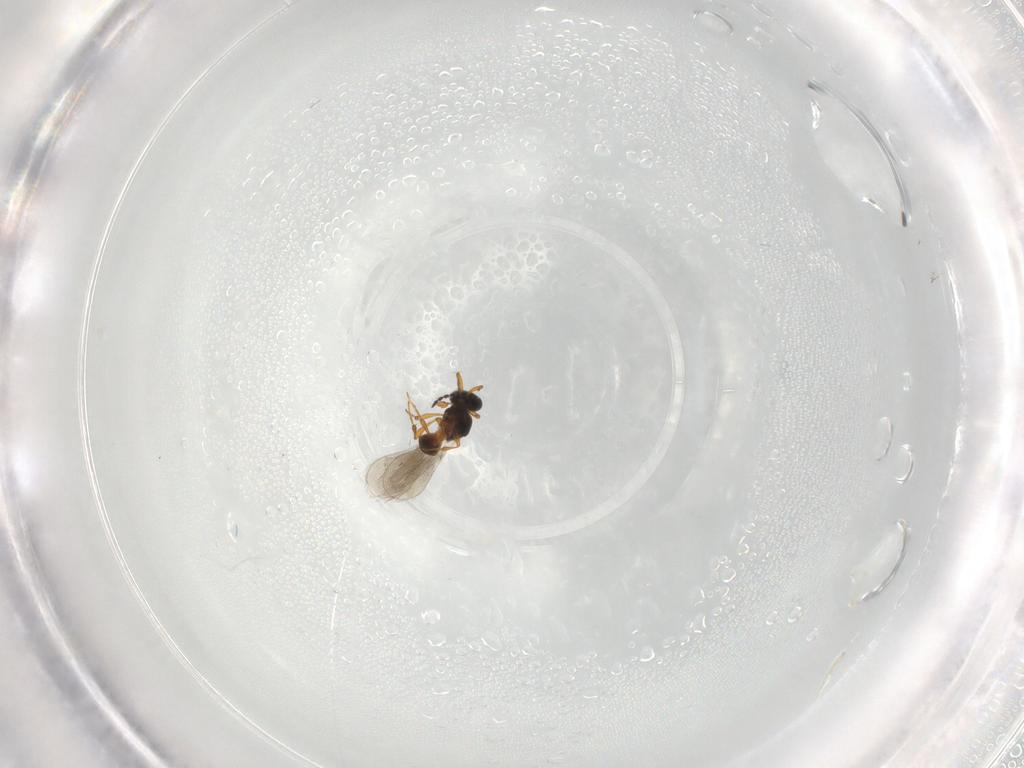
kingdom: Animalia
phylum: Arthropoda
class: Insecta
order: Hymenoptera
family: Platygastridae
